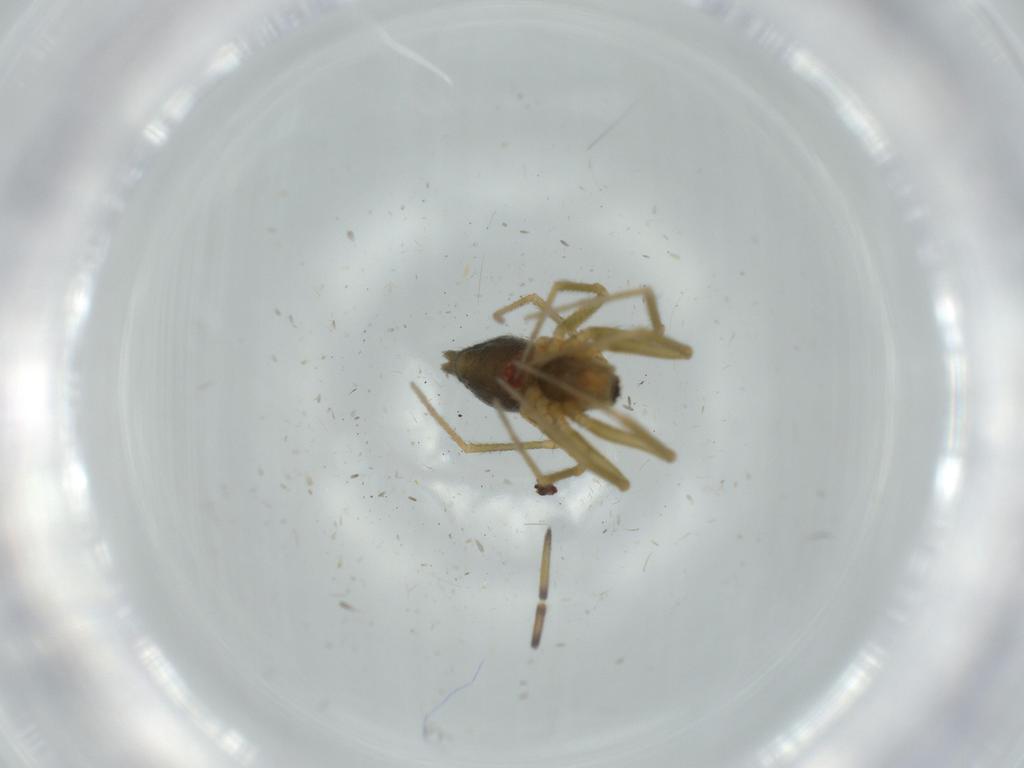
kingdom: Animalia
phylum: Arthropoda
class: Arachnida
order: Araneae
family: Linyphiidae
